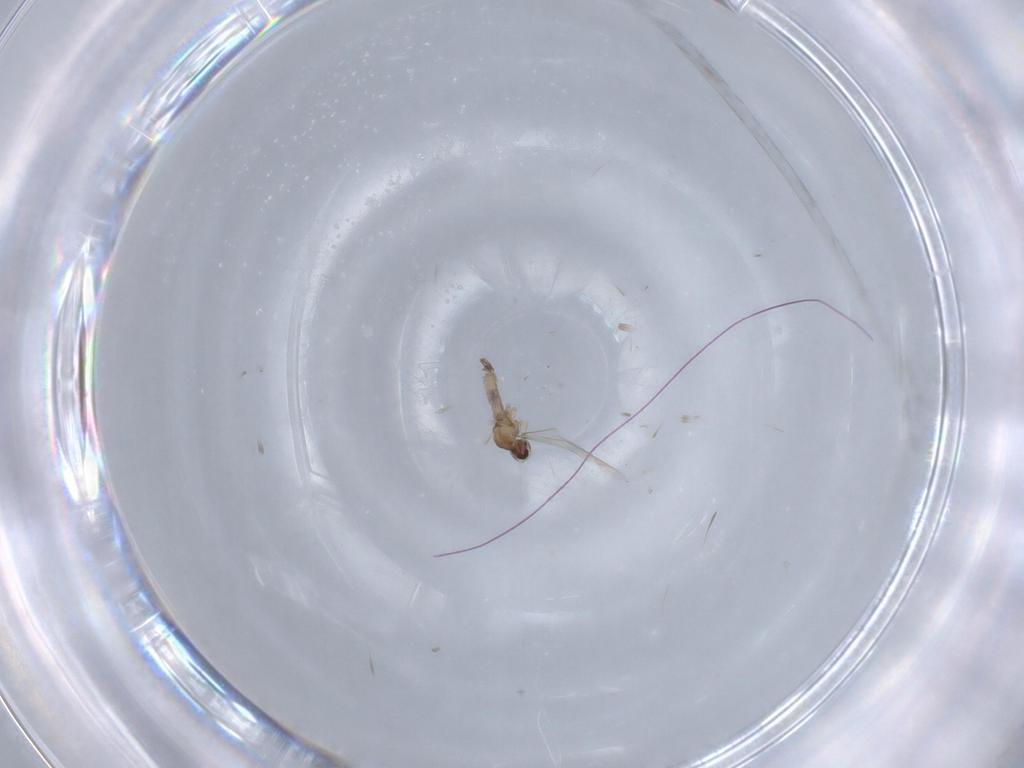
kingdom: Animalia
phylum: Arthropoda
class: Insecta
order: Diptera
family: Cecidomyiidae
